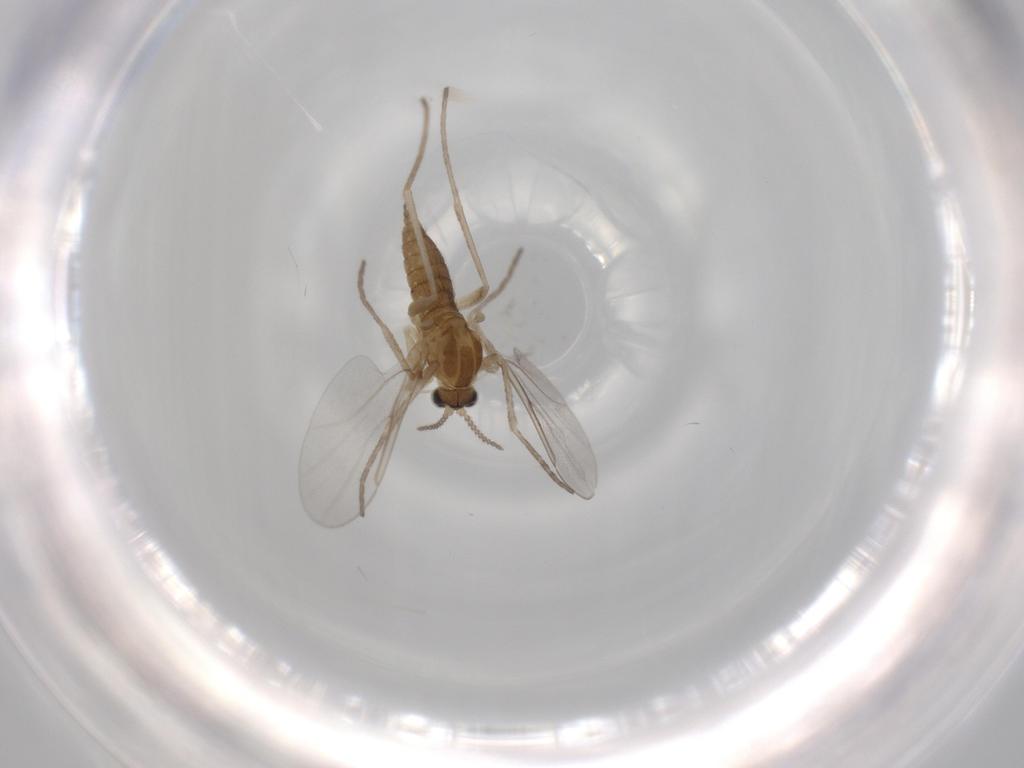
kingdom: Animalia
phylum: Arthropoda
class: Insecta
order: Diptera
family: Cecidomyiidae
